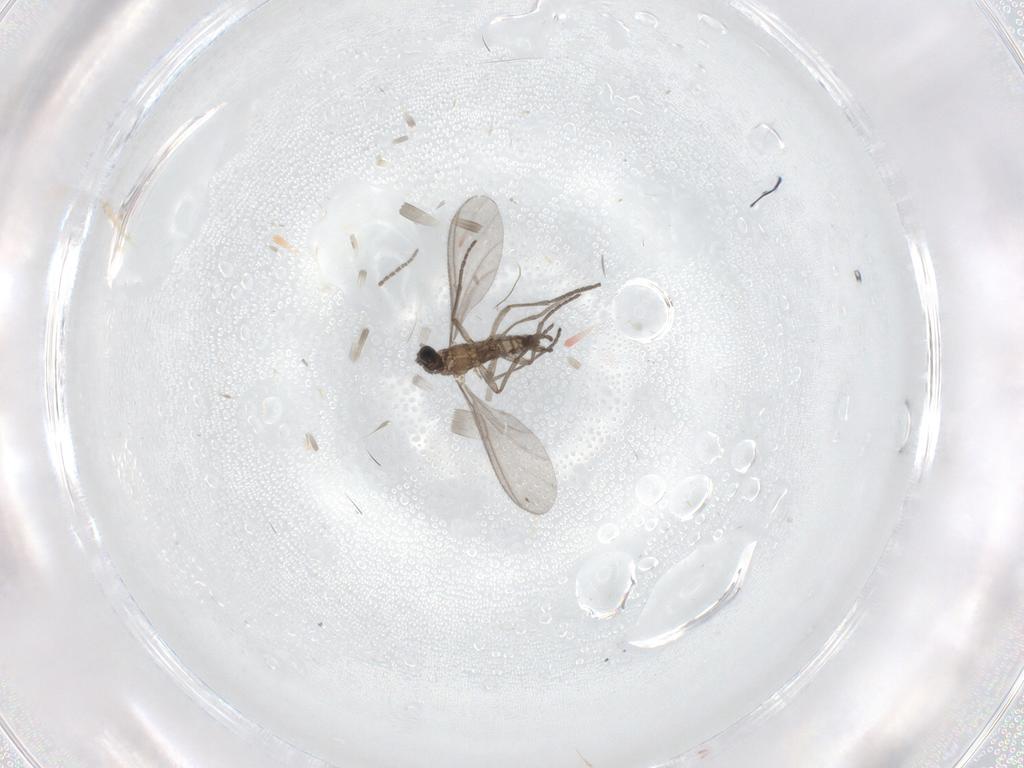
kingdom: Animalia
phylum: Arthropoda
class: Insecta
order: Diptera
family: Sciaridae
